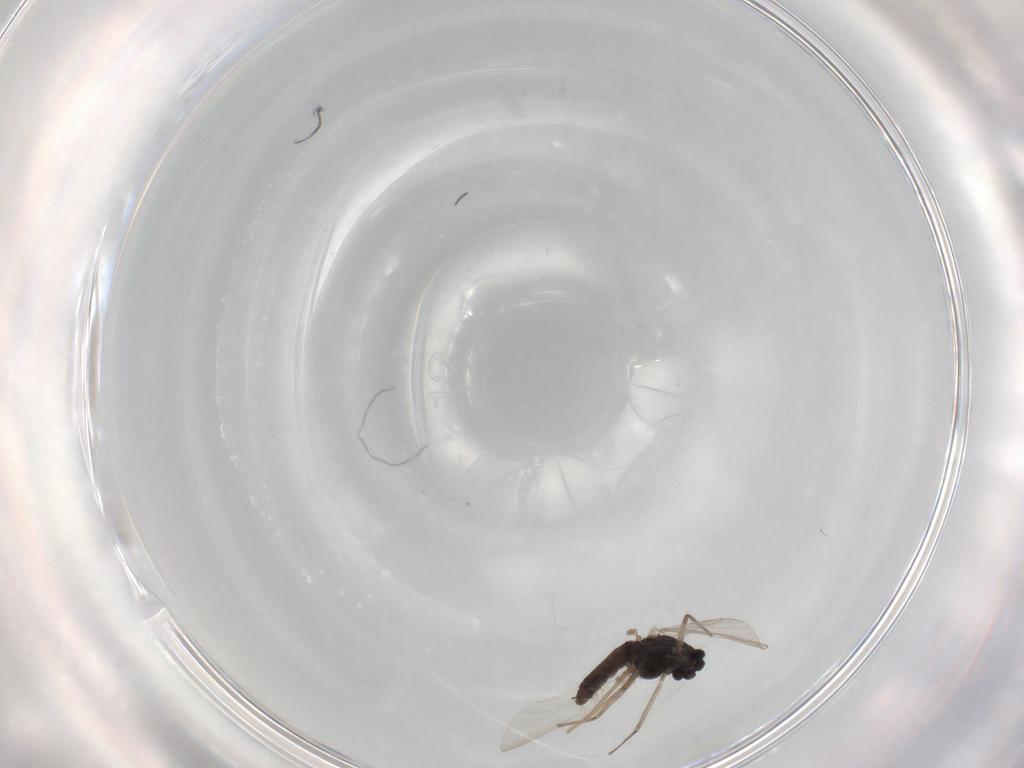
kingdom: Animalia
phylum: Arthropoda
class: Insecta
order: Diptera
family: Chironomidae
